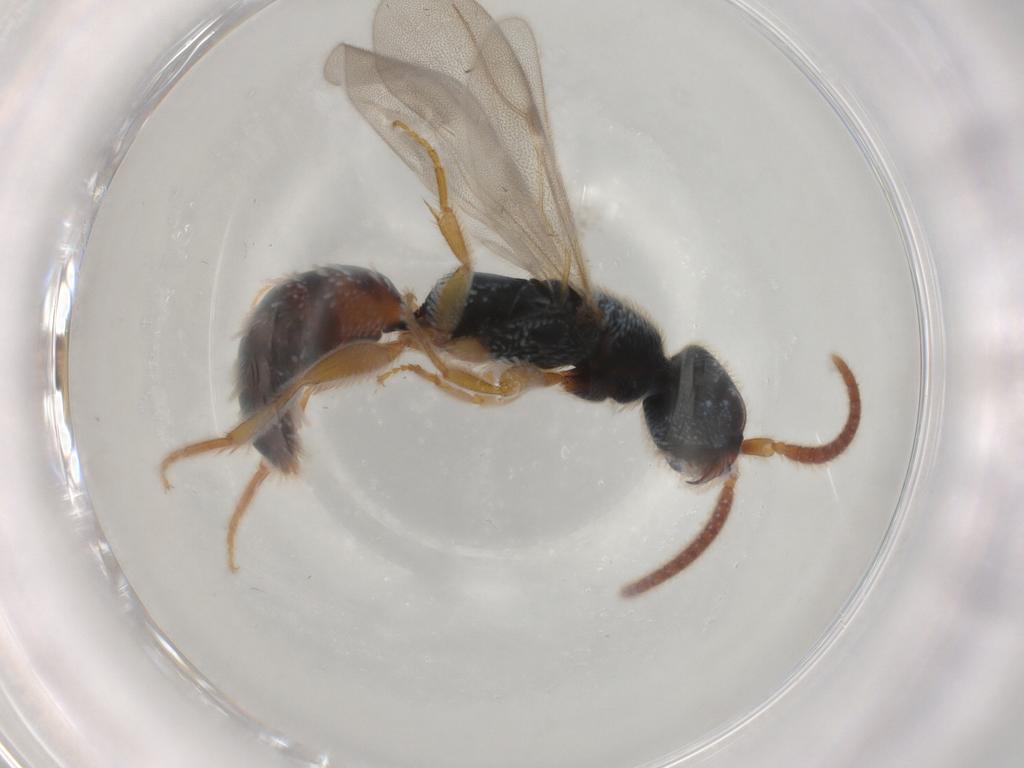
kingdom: Animalia
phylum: Arthropoda
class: Insecta
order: Hymenoptera
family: Bethylidae
